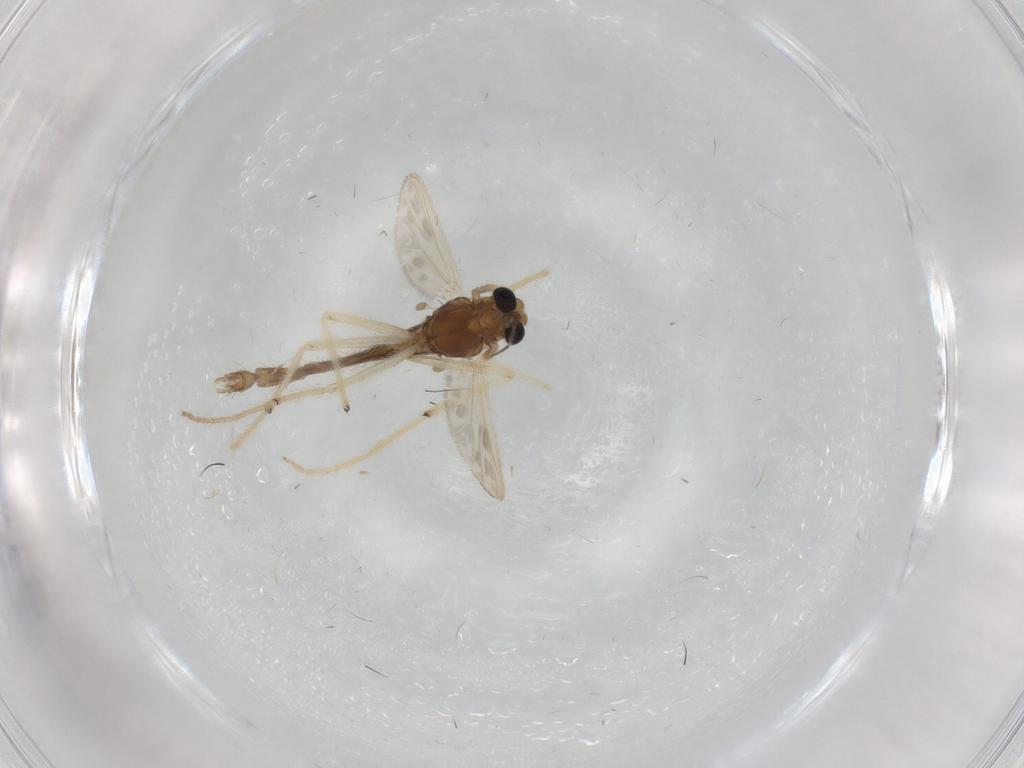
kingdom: Animalia
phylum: Arthropoda
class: Insecta
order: Diptera
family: Chironomidae
